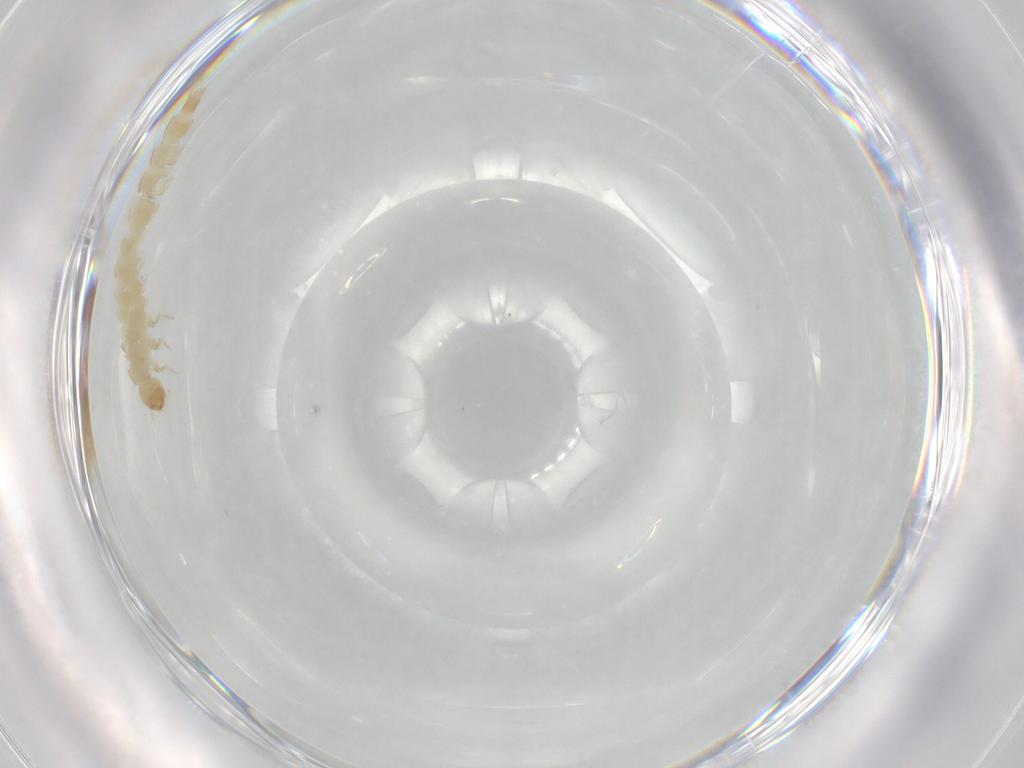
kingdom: Animalia
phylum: Arthropoda
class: Insecta
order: Coleoptera
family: Staphylinidae
